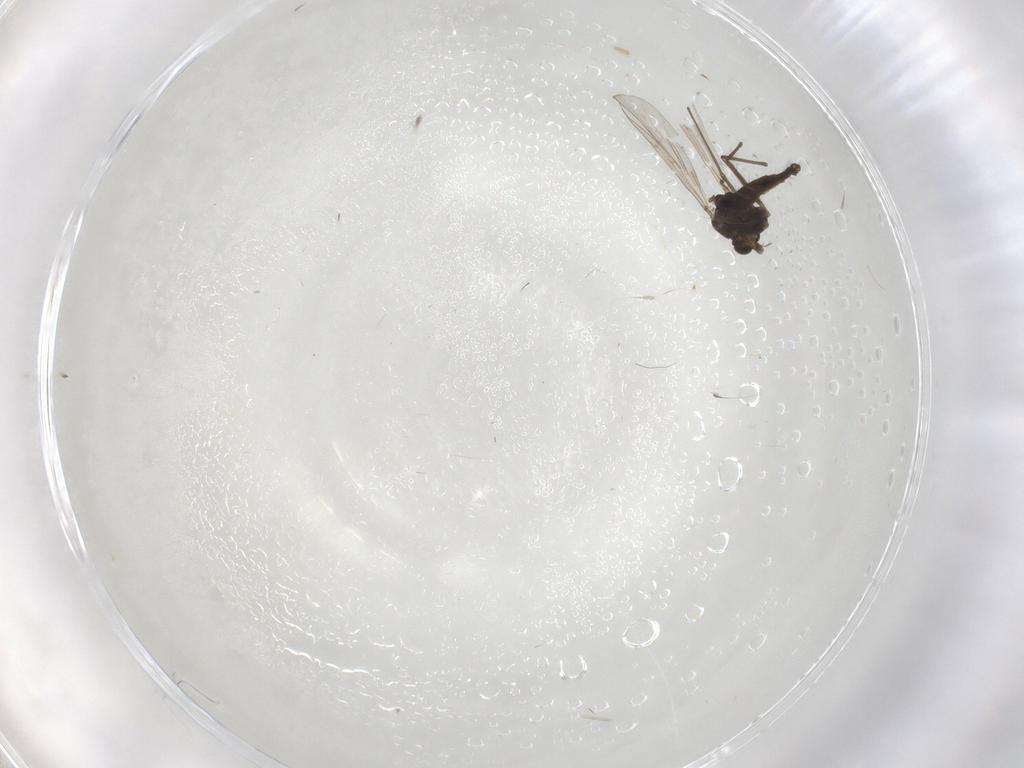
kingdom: Animalia
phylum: Arthropoda
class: Insecta
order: Diptera
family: Chironomidae
